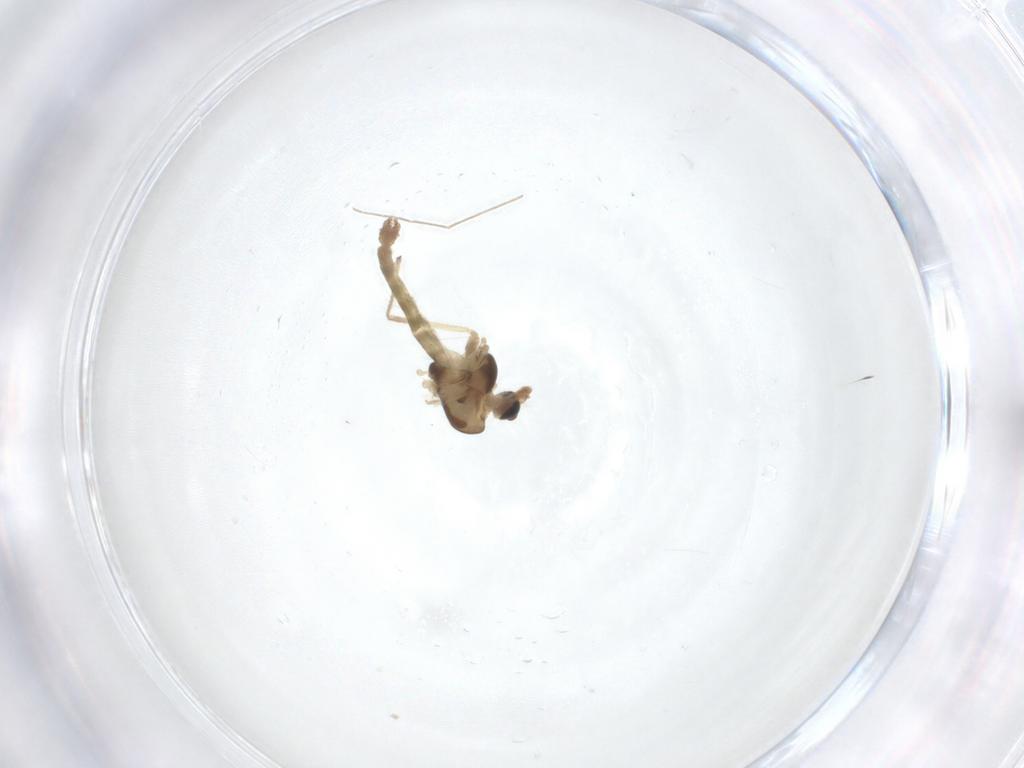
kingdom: Animalia
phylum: Arthropoda
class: Insecta
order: Diptera
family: Chironomidae
